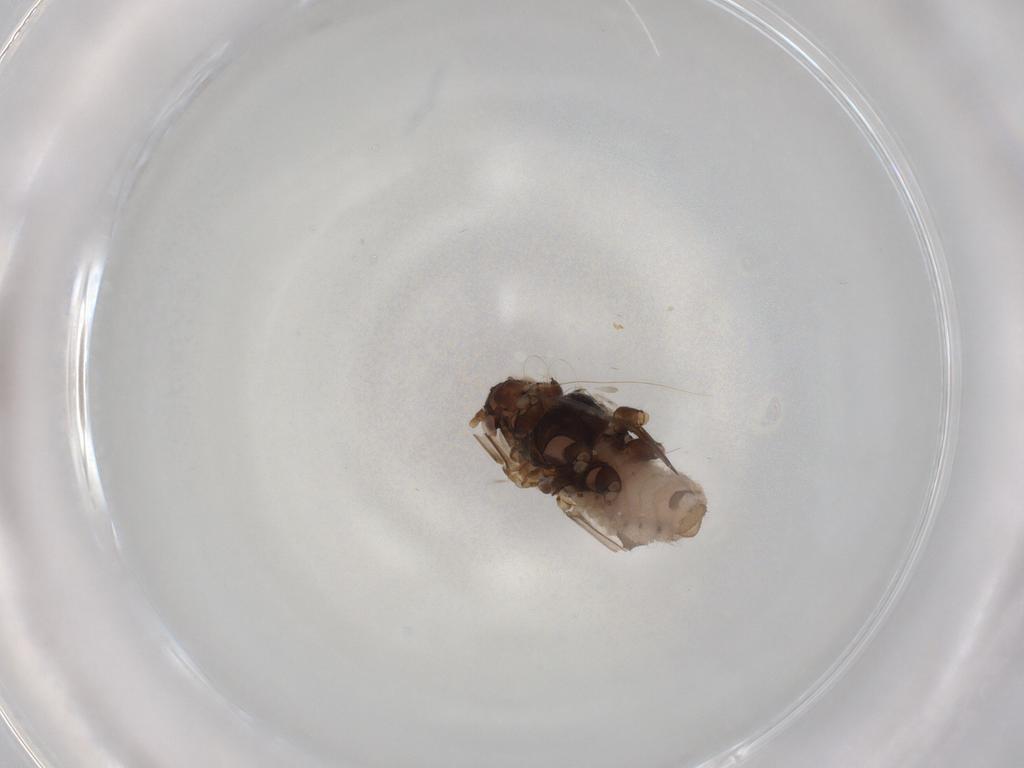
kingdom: Animalia
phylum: Arthropoda
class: Insecta
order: Hemiptera
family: Aphididae
